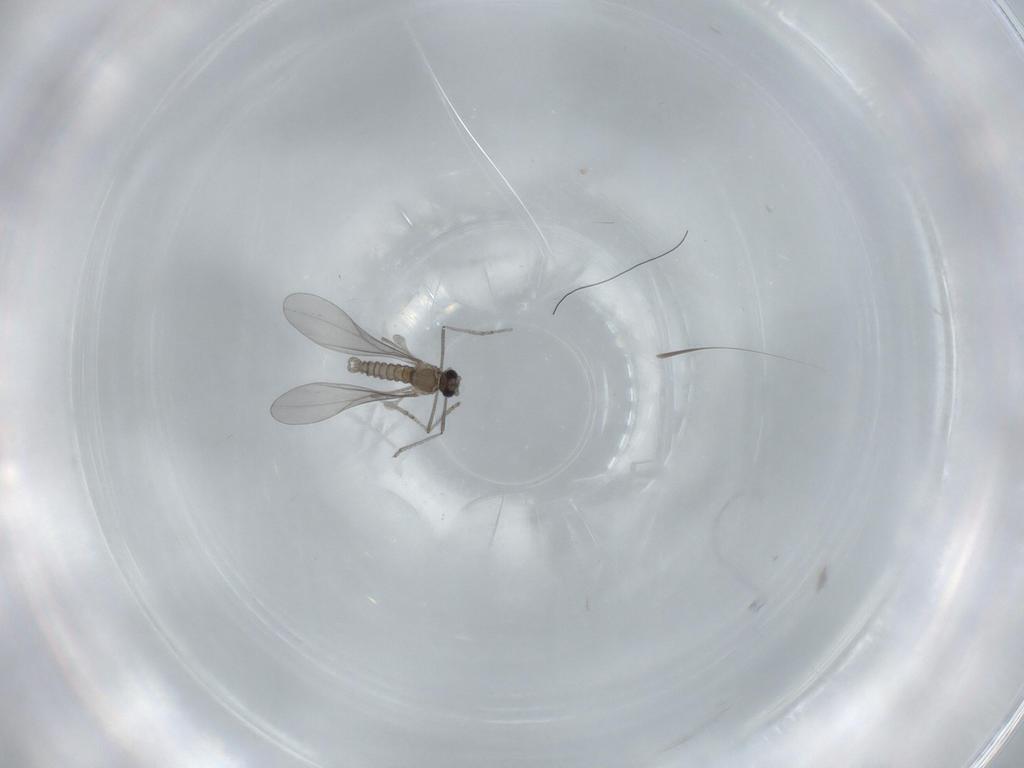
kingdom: Animalia
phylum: Arthropoda
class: Insecta
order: Diptera
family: Cecidomyiidae
